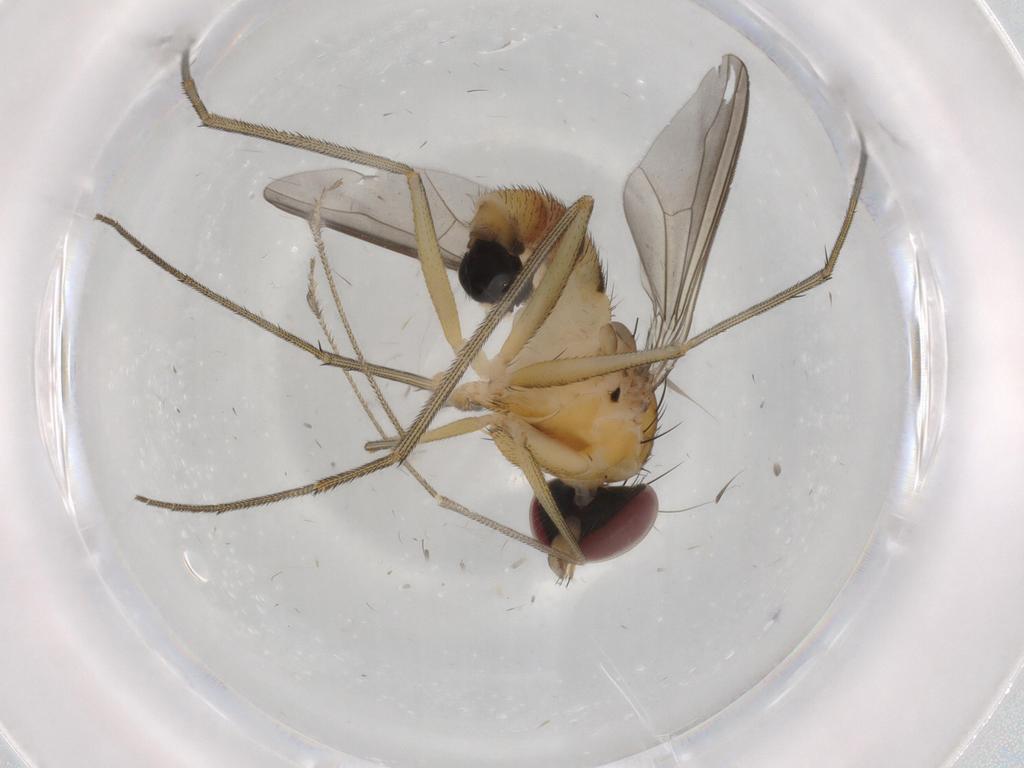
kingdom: Animalia
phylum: Arthropoda
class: Insecta
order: Diptera
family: Dolichopodidae
